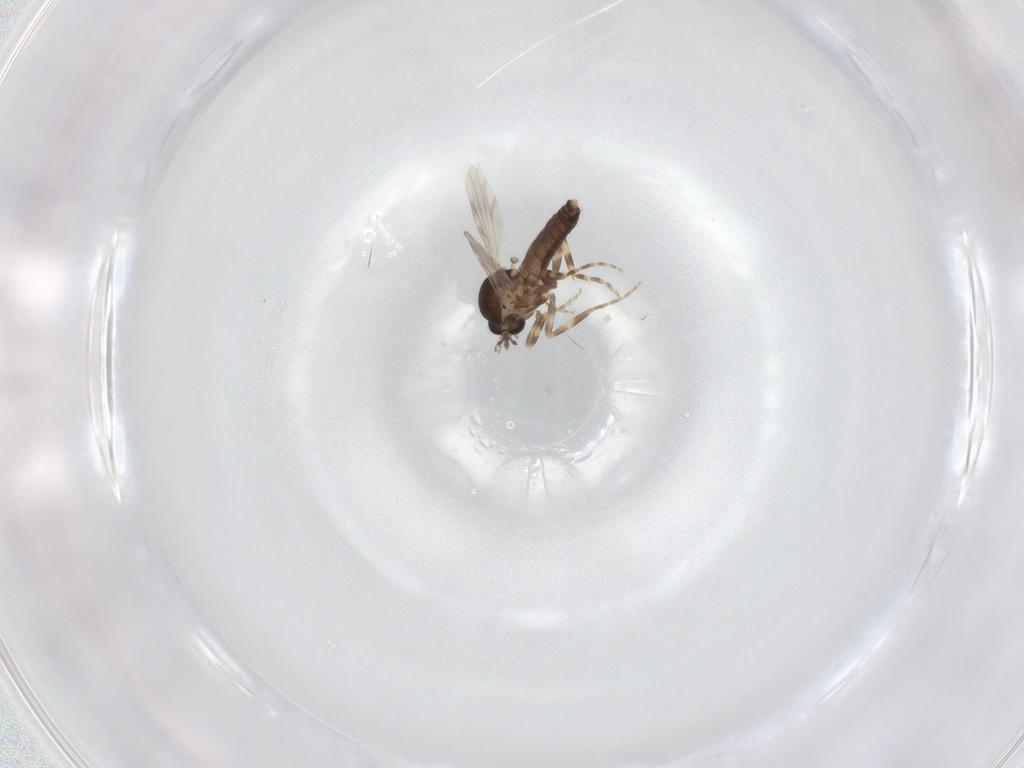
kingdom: Animalia
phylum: Arthropoda
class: Insecta
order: Diptera
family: Ceratopogonidae
